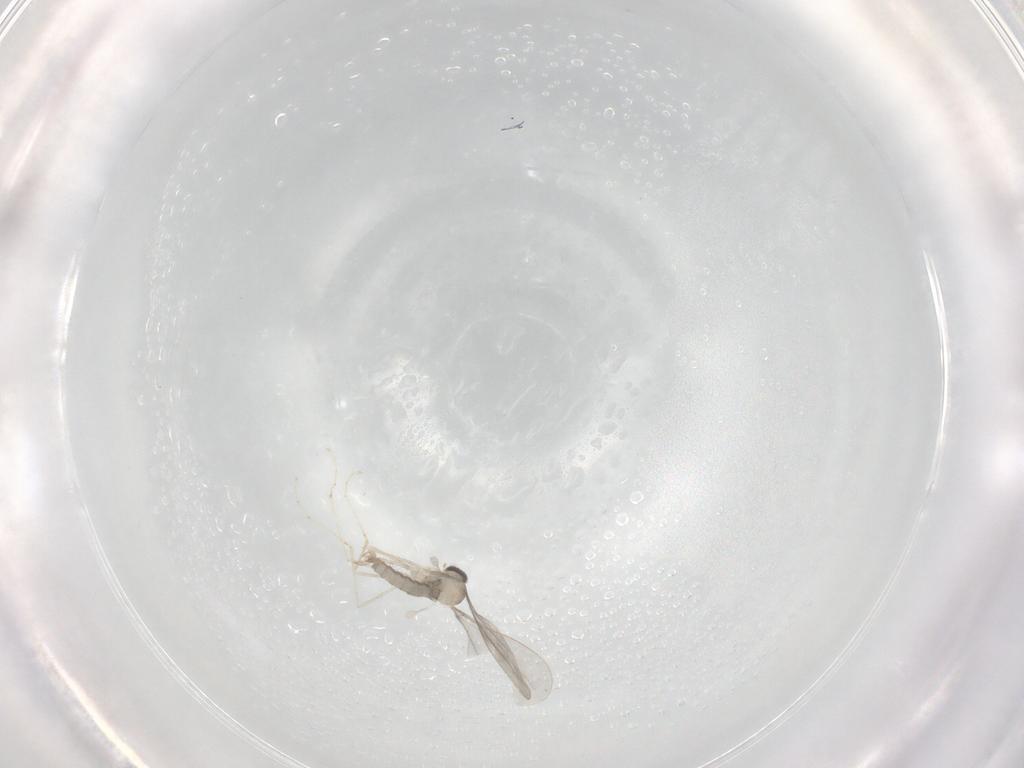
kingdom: Animalia
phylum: Arthropoda
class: Insecta
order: Diptera
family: Cecidomyiidae
